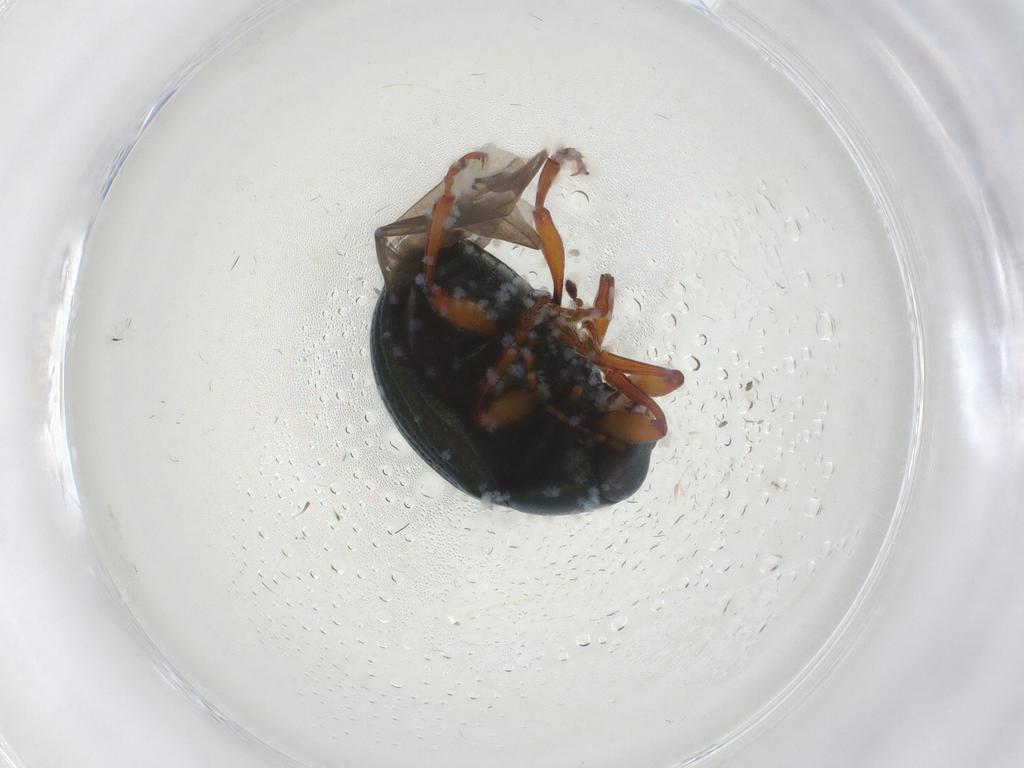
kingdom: Animalia
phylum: Arthropoda
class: Insecta
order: Coleoptera
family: Chrysomelidae
